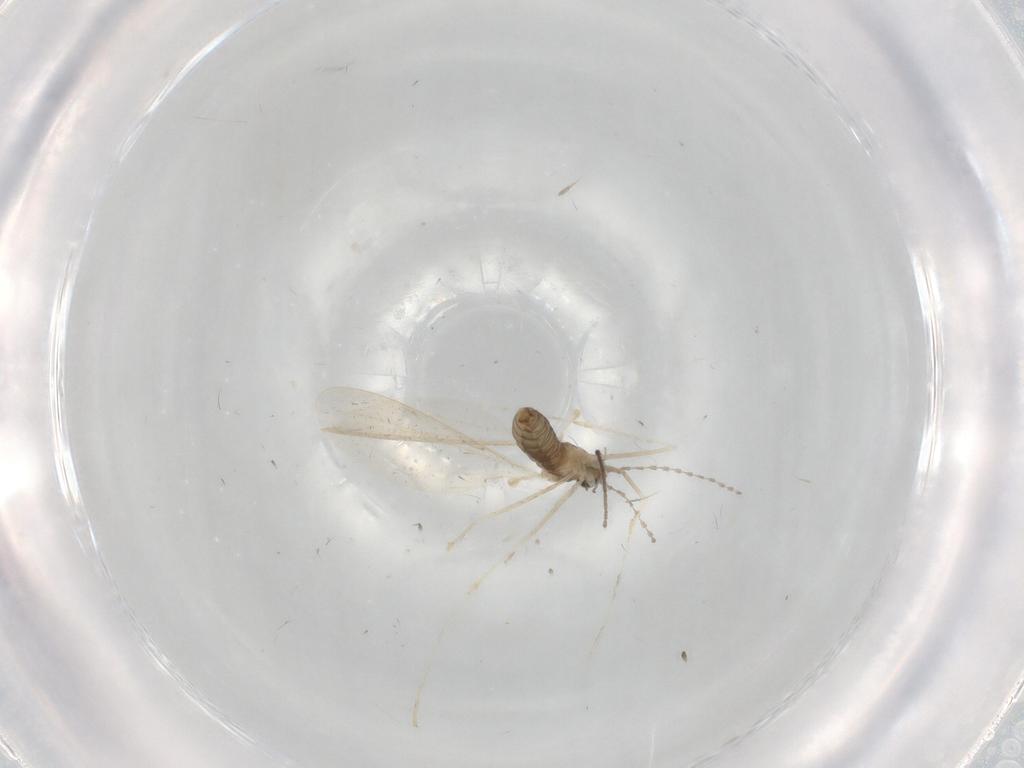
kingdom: Animalia
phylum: Arthropoda
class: Insecta
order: Diptera
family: Cecidomyiidae
